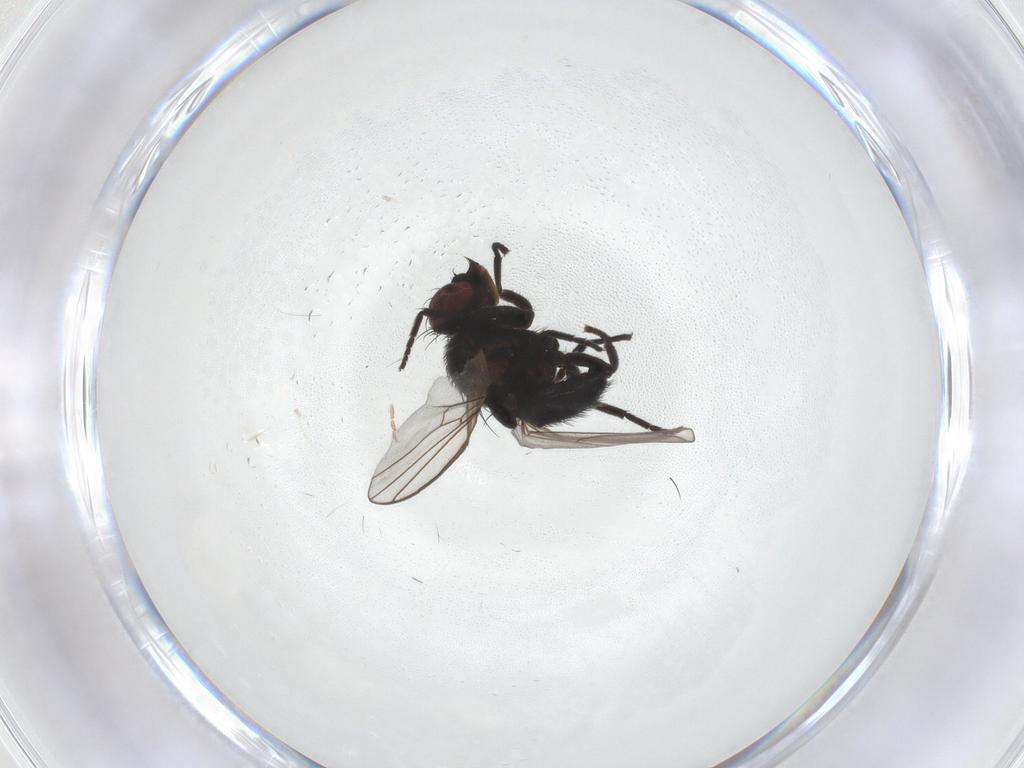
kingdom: Animalia
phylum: Arthropoda
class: Insecta
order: Diptera
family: Agromyzidae
